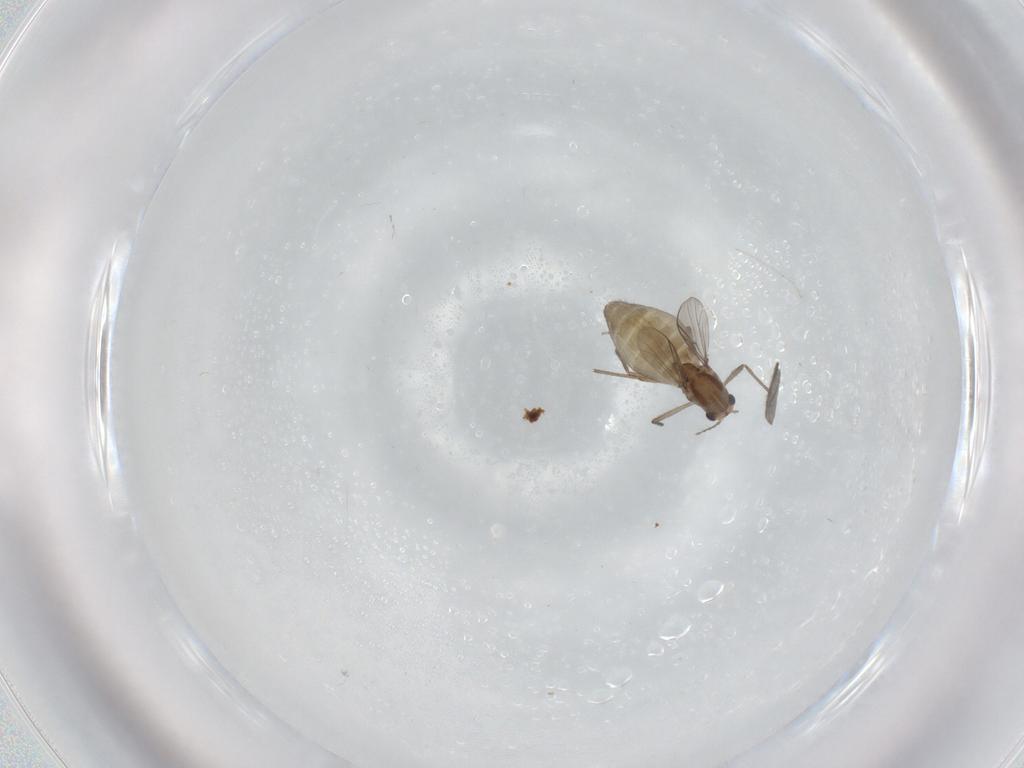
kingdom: Animalia
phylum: Arthropoda
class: Insecta
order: Diptera
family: Chironomidae
